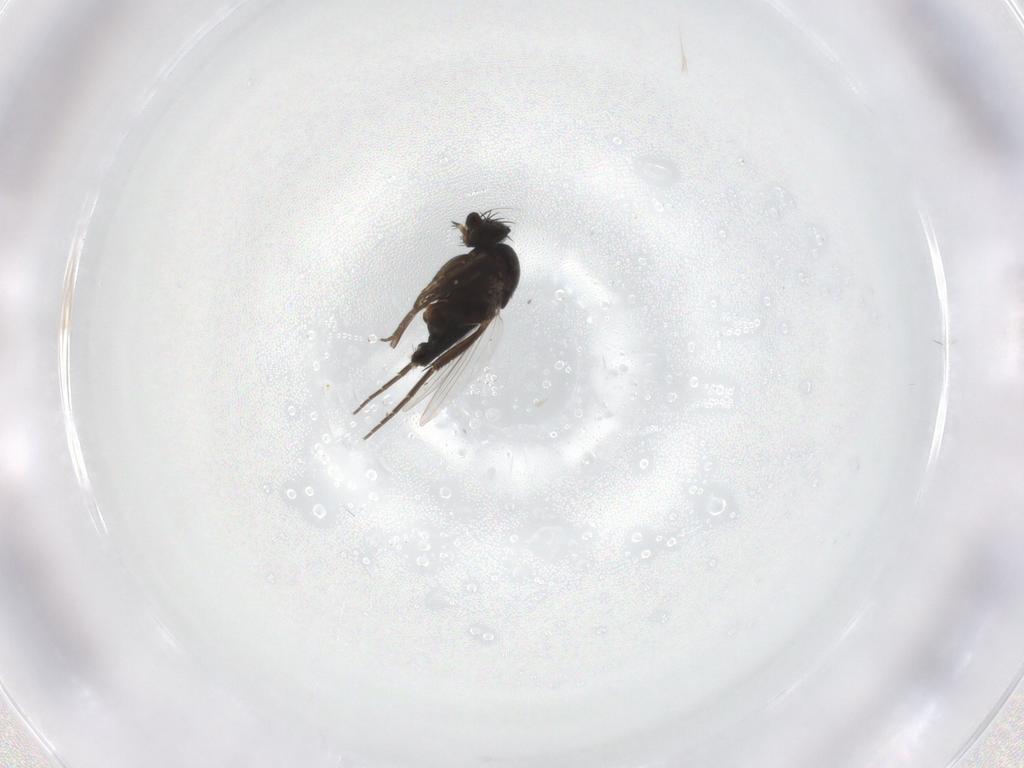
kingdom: Animalia
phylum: Arthropoda
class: Insecta
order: Diptera
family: Phoridae
